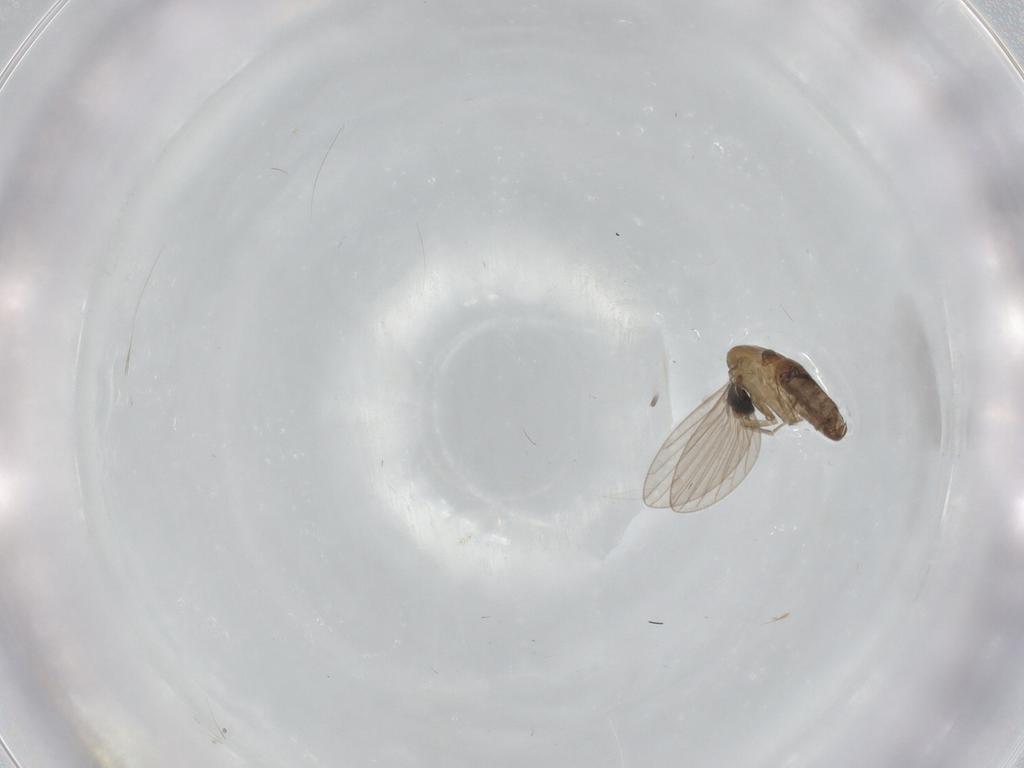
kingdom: Animalia
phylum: Arthropoda
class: Insecta
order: Diptera
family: Psychodidae
